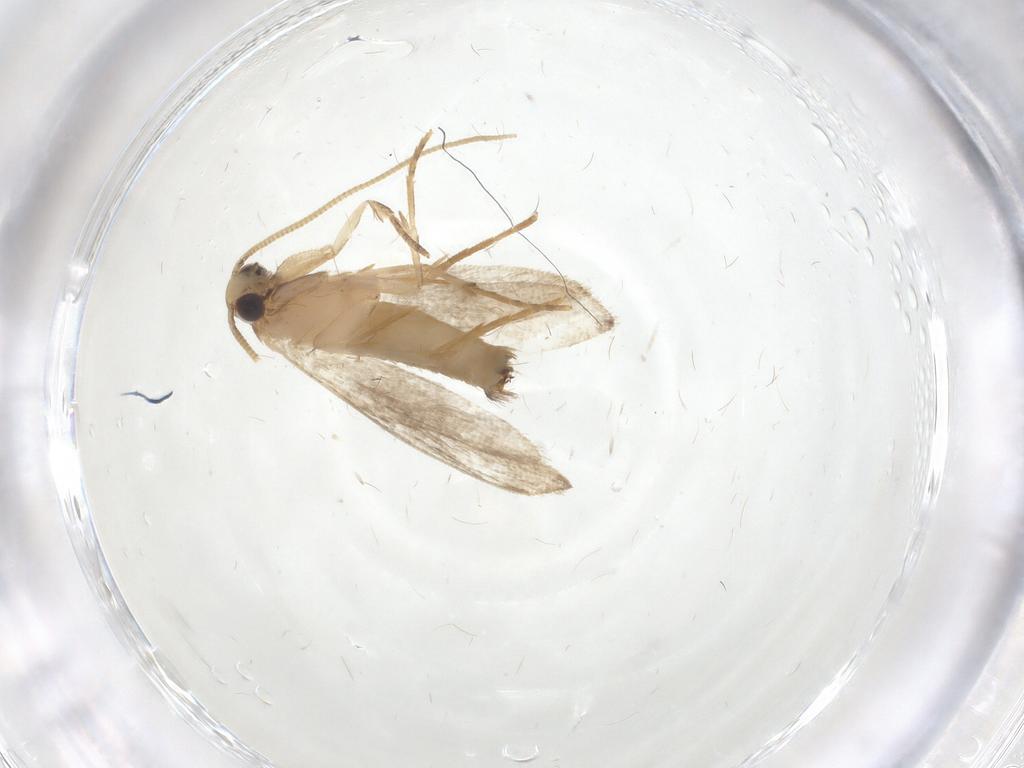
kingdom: Animalia
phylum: Arthropoda
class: Insecta
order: Lepidoptera
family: Tineidae
